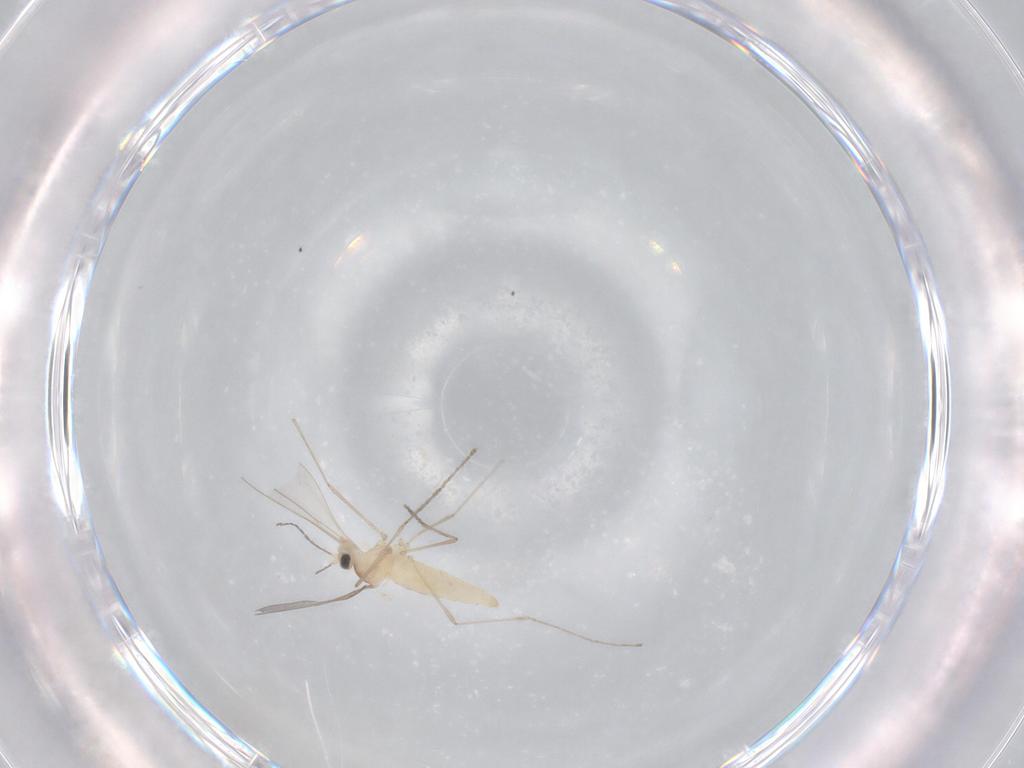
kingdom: Animalia
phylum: Arthropoda
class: Insecta
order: Diptera
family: Cecidomyiidae
